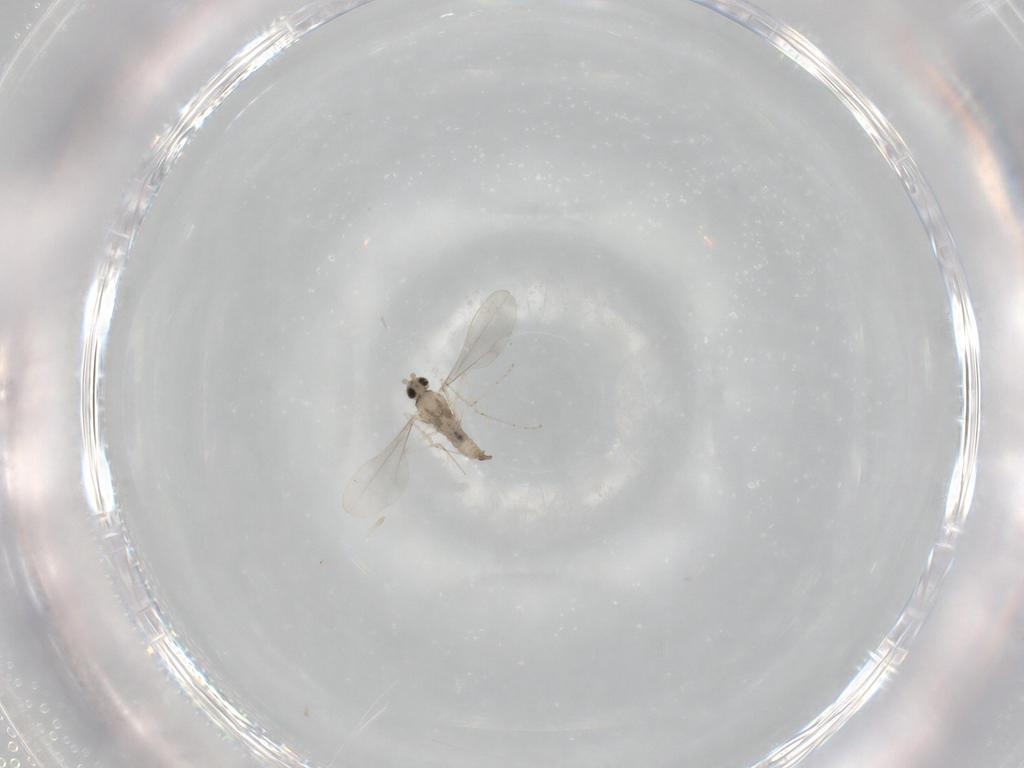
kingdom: Animalia
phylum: Arthropoda
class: Insecta
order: Diptera
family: Cecidomyiidae
